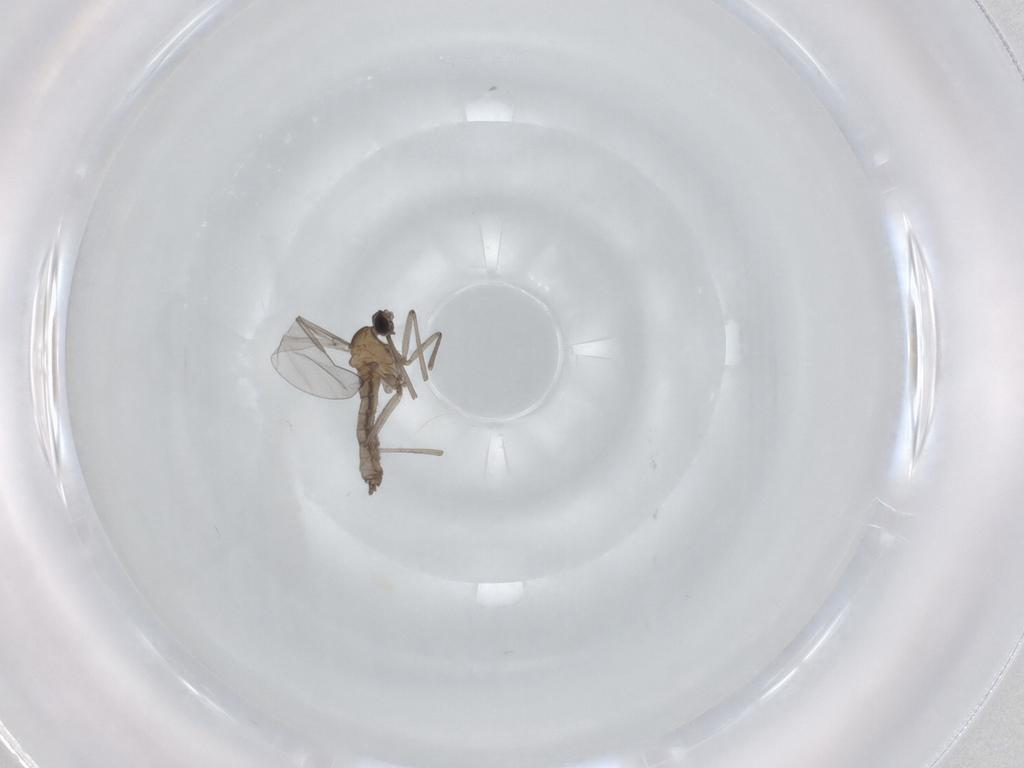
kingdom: Animalia
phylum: Arthropoda
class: Insecta
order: Diptera
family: Cecidomyiidae
